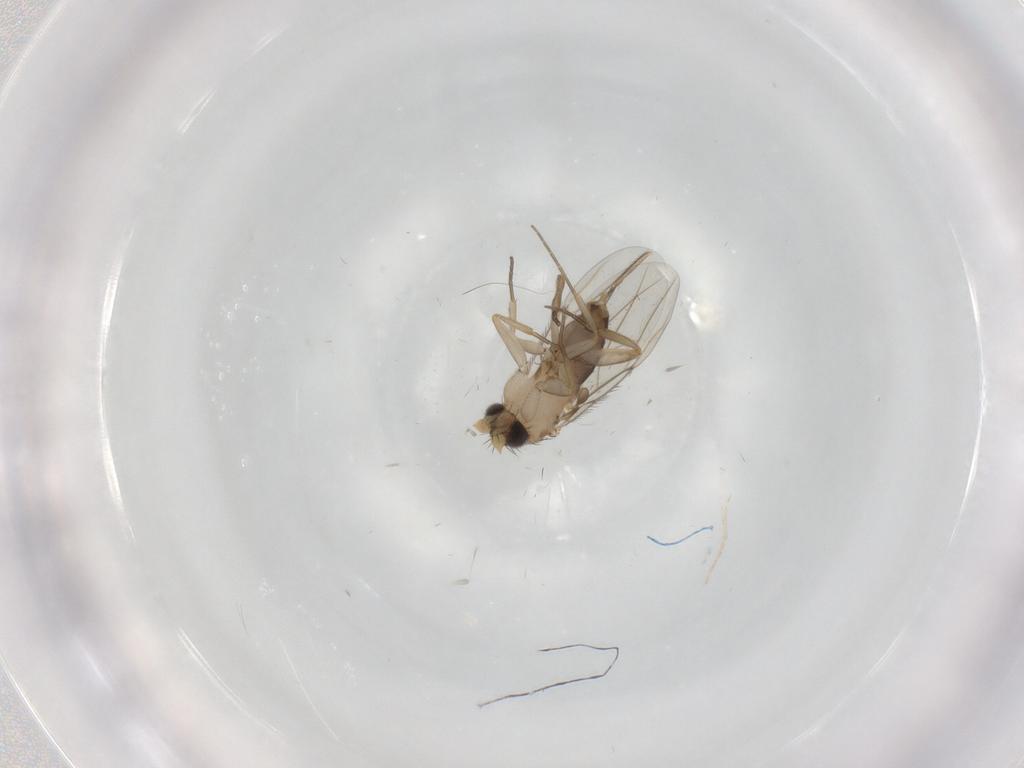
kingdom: Animalia
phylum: Arthropoda
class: Insecta
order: Diptera
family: Phoridae
